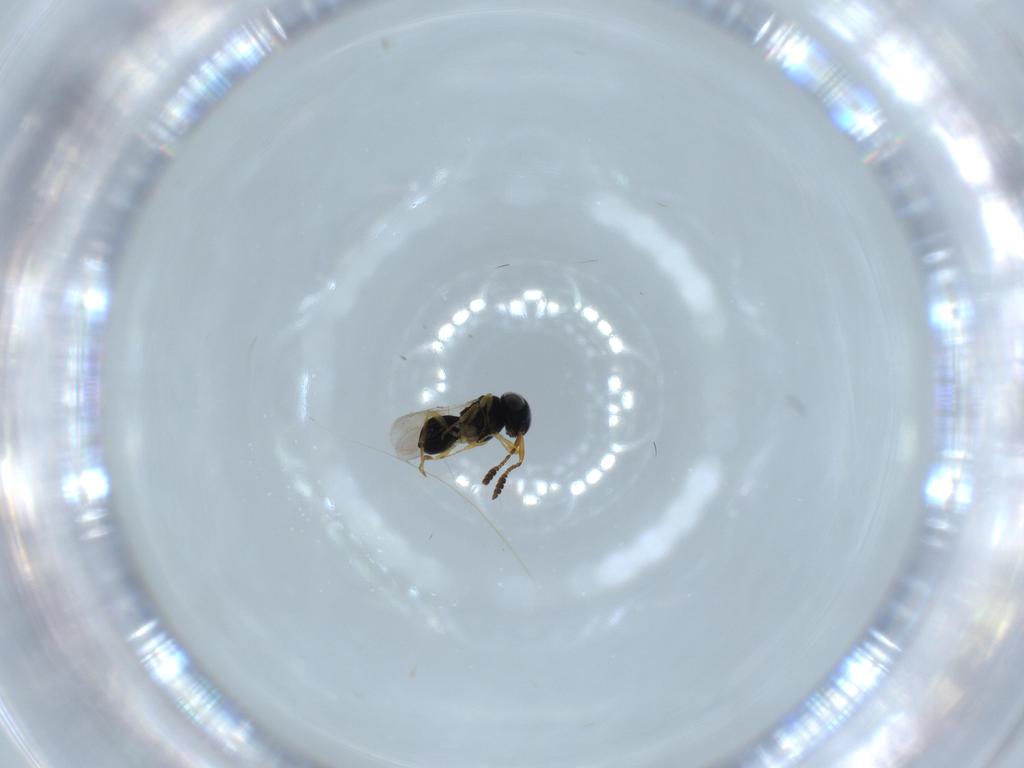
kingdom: Animalia
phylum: Arthropoda
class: Insecta
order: Hymenoptera
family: Scelionidae
